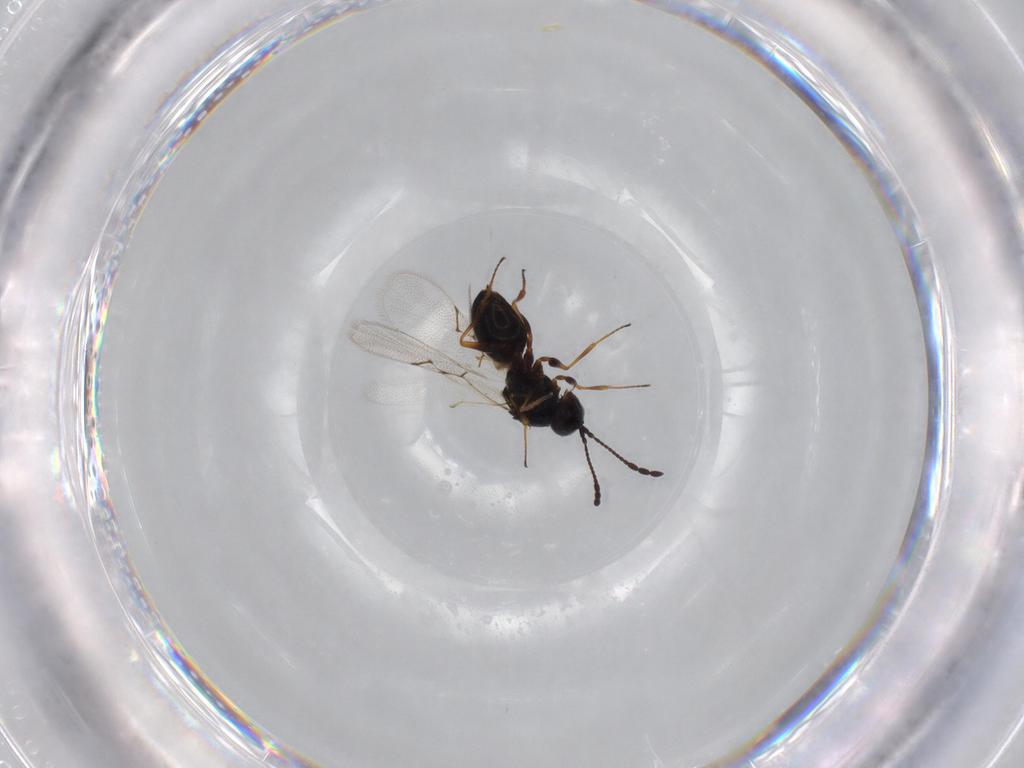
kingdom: Animalia
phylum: Arthropoda
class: Insecta
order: Hymenoptera
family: Figitidae
